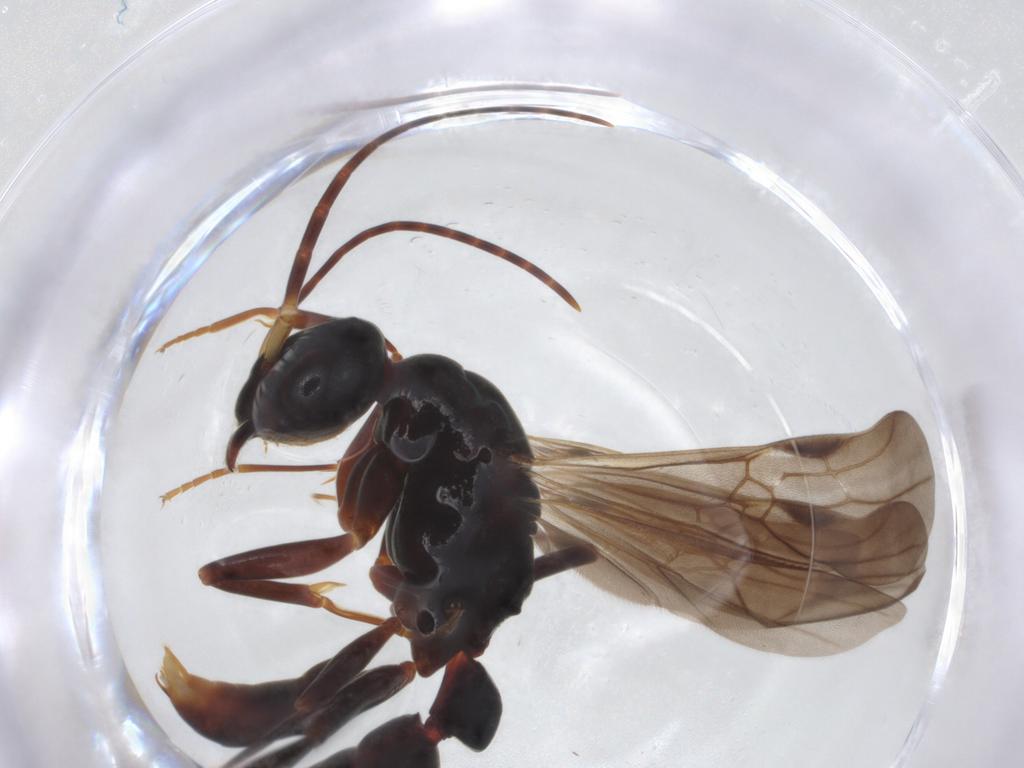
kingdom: Animalia
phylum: Arthropoda
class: Insecta
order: Hymenoptera
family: Formicidae
